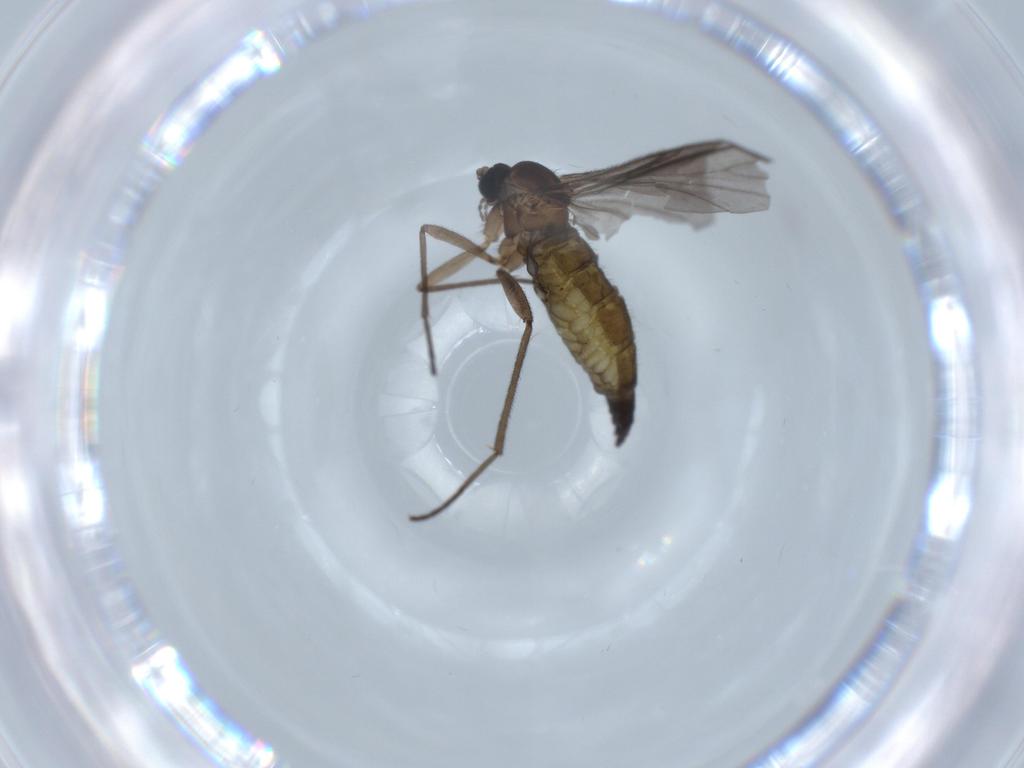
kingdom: Animalia
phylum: Arthropoda
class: Insecta
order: Diptera
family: Sciaridae
